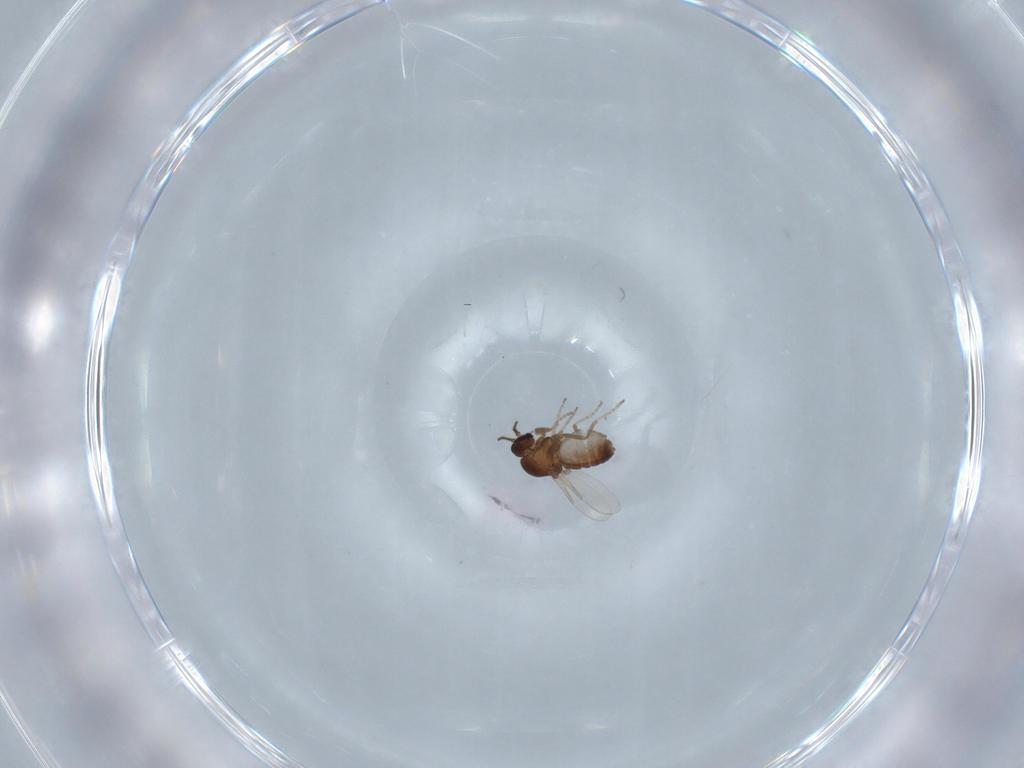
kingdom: Animalia
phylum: Arthropoda
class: Insecta
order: Diptera
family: Ceratopogonidae
